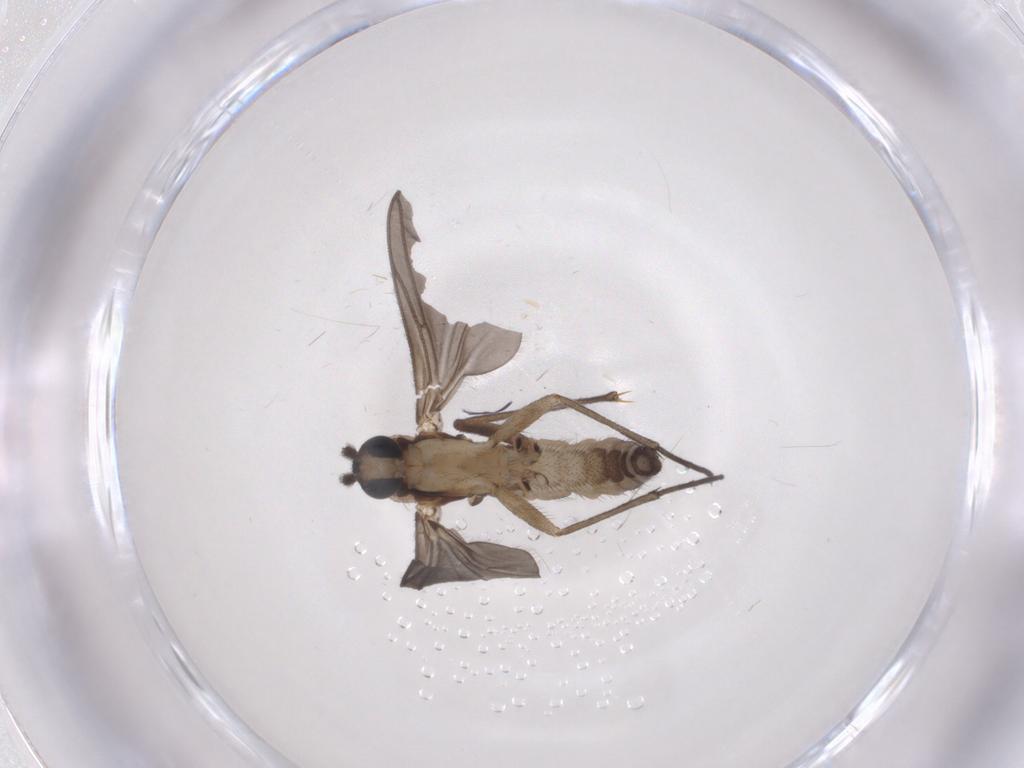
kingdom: Animalia
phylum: Arthropoda
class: Insecta
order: Diptera
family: Sciaridae
